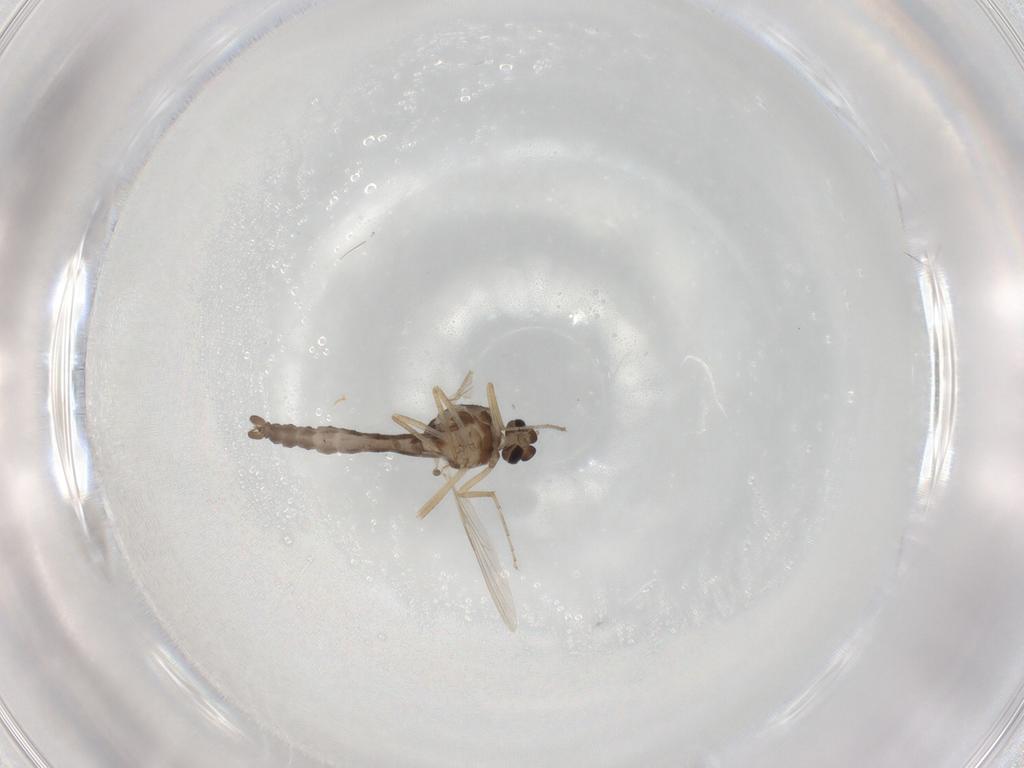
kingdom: Animalia
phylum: Arthropoda
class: Insecta
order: Diptera
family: Ceratopogonidae
